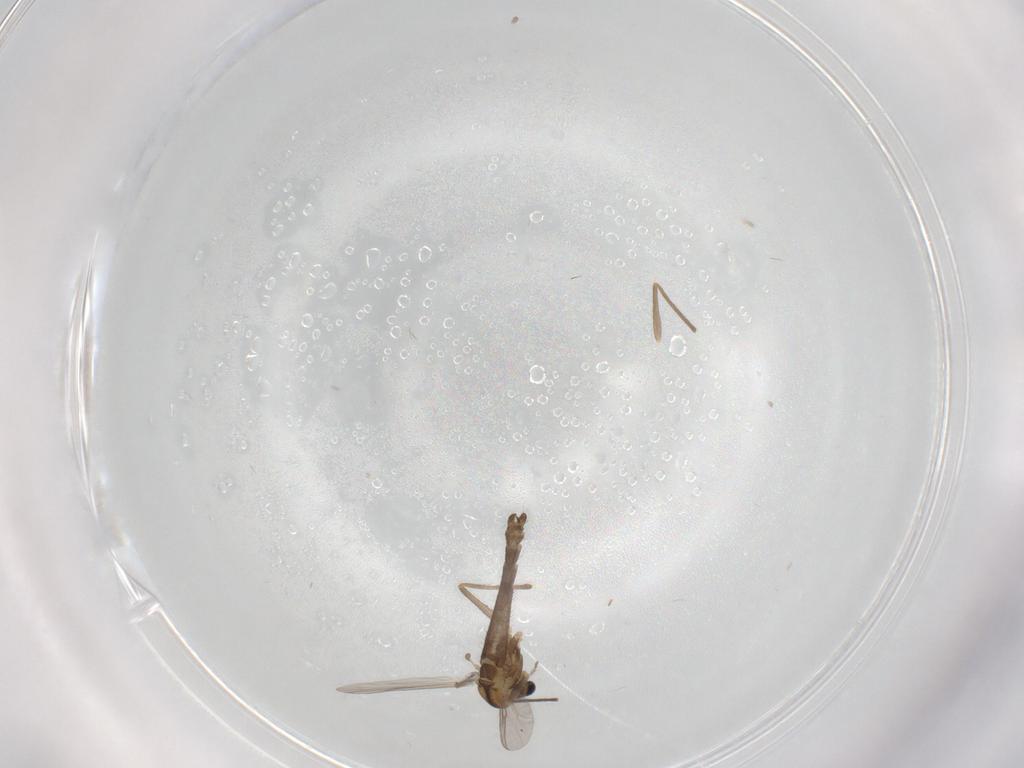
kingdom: Animalia
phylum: Arthropoda
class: Insecta
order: Diptera
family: Chironomidae
